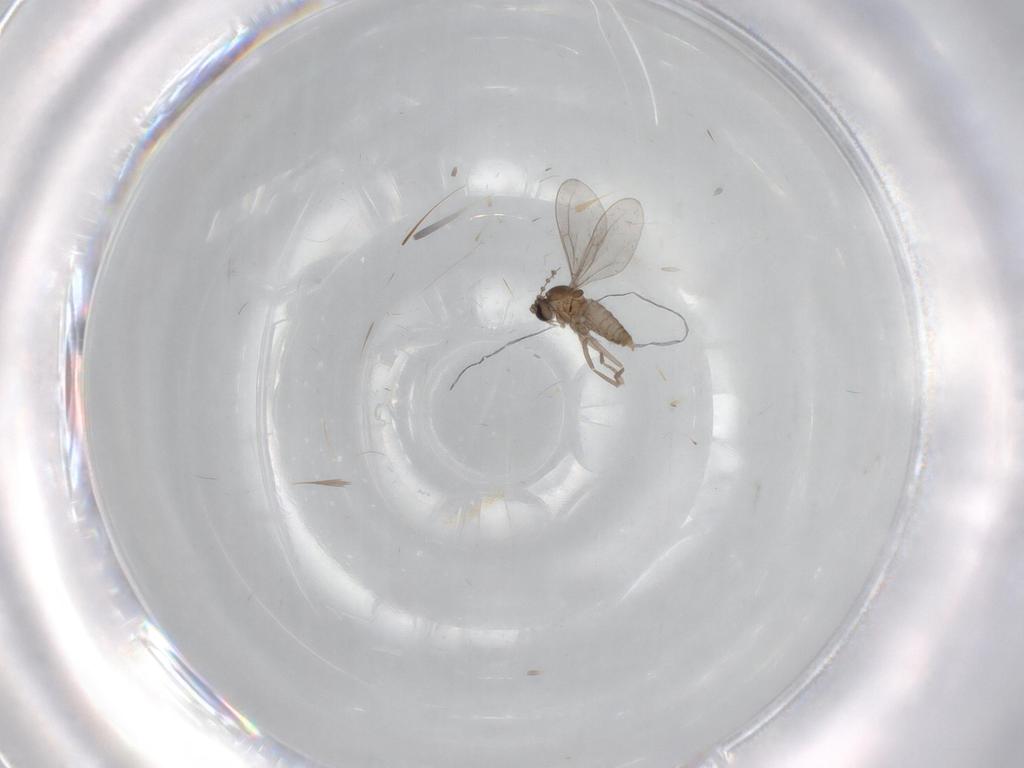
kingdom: Animalia
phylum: Arthropoda
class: Insecta
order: Diptera
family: Cecidomyiidae
